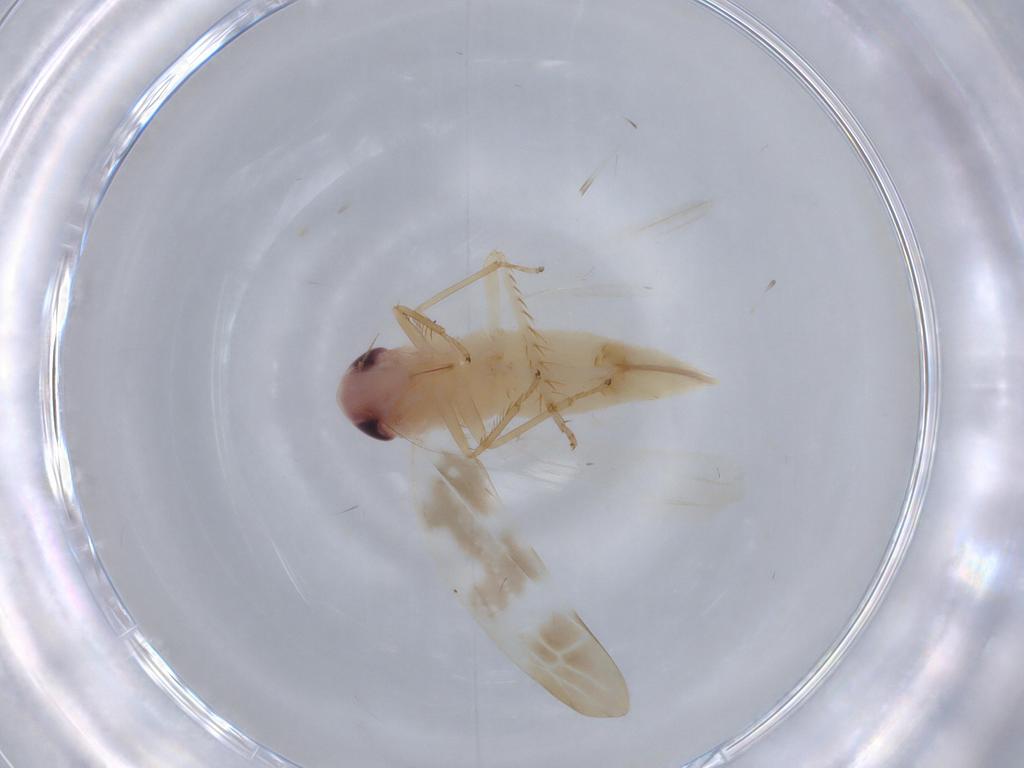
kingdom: Animalia
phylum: Arthropoda
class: Insecta
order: Hemiptera
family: Cicadellidae
